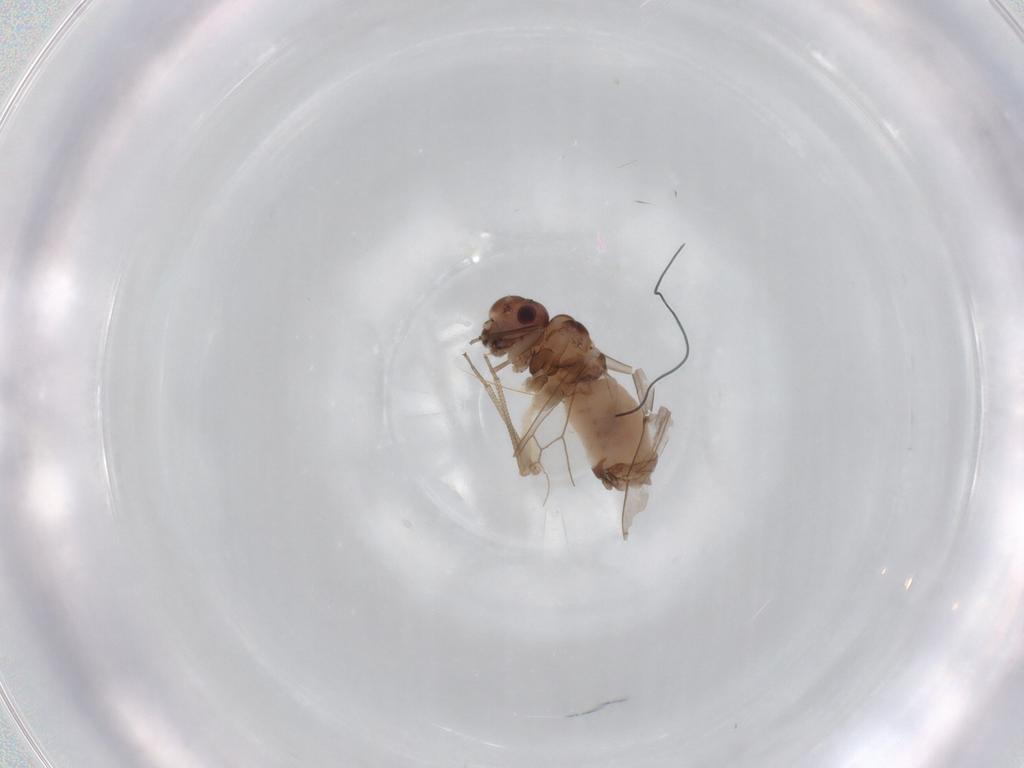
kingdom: Animalia
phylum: Arthropoda
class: Insecta
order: Psocodea
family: Peripsocidae
